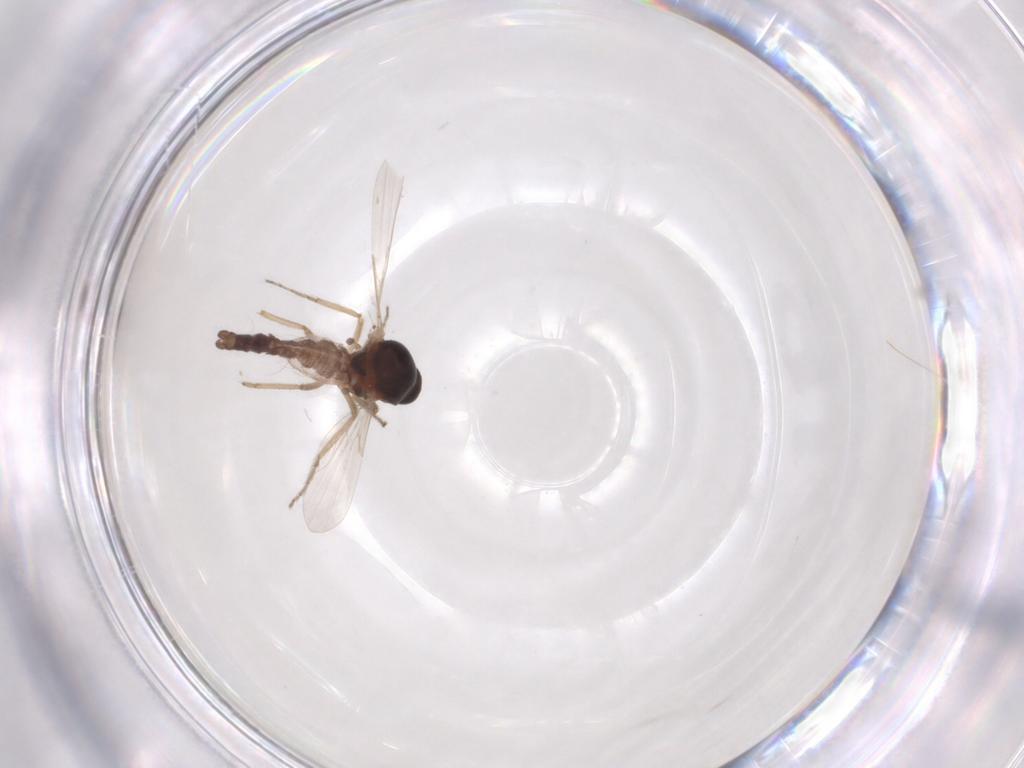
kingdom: Animalia
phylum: Arthropoda
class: Insecta
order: Diptera
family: Ceratopogonidae
